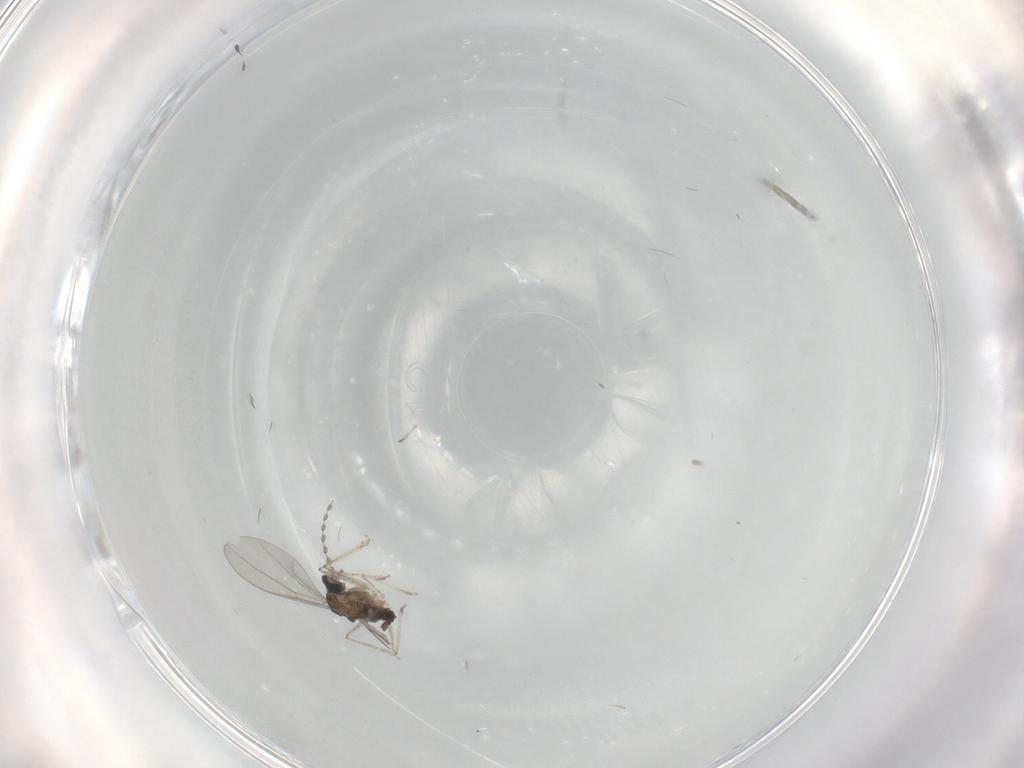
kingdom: Animalia
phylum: Arthropoda
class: Insecta
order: Diptera
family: Cecidomyiidae
